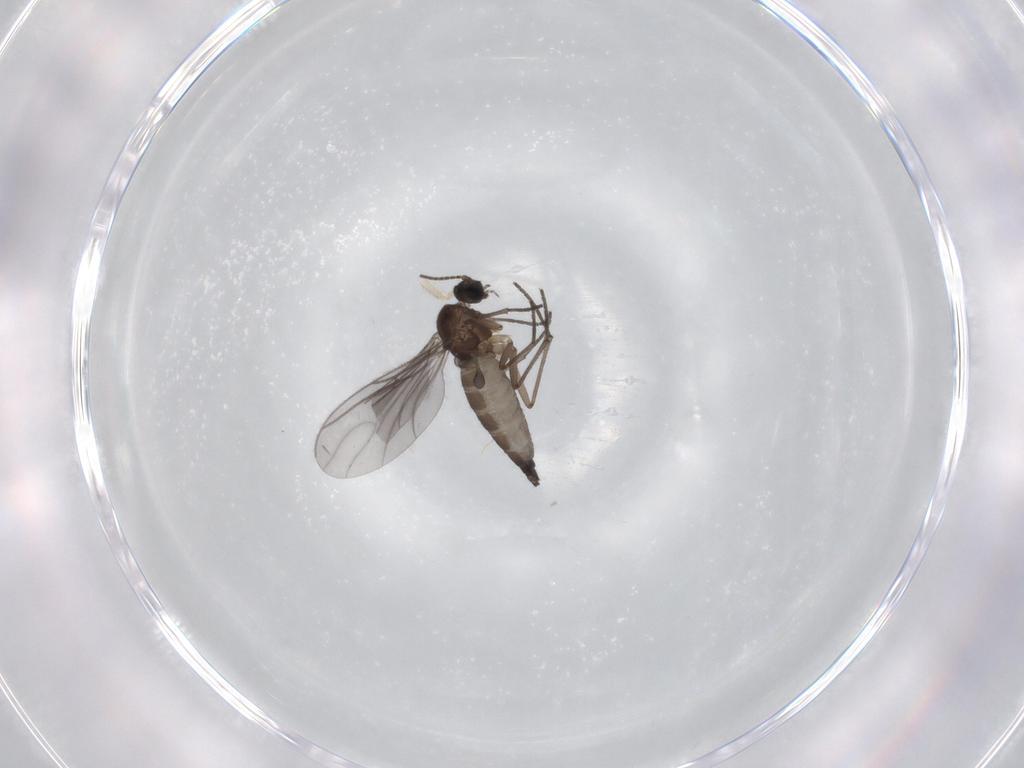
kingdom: Animalia
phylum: Arthropoda
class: Insecta
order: Diptera
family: Sciaridae
